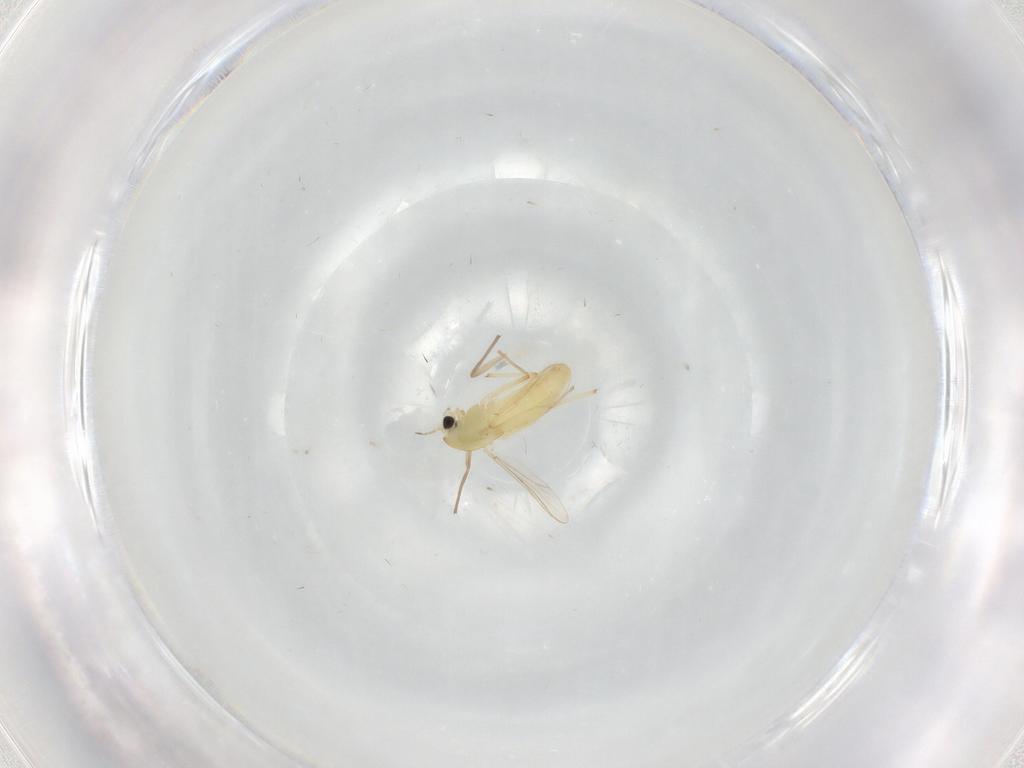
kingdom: Animalia
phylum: Arthropoda
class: Insecta
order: Diptera
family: Chironomidae
